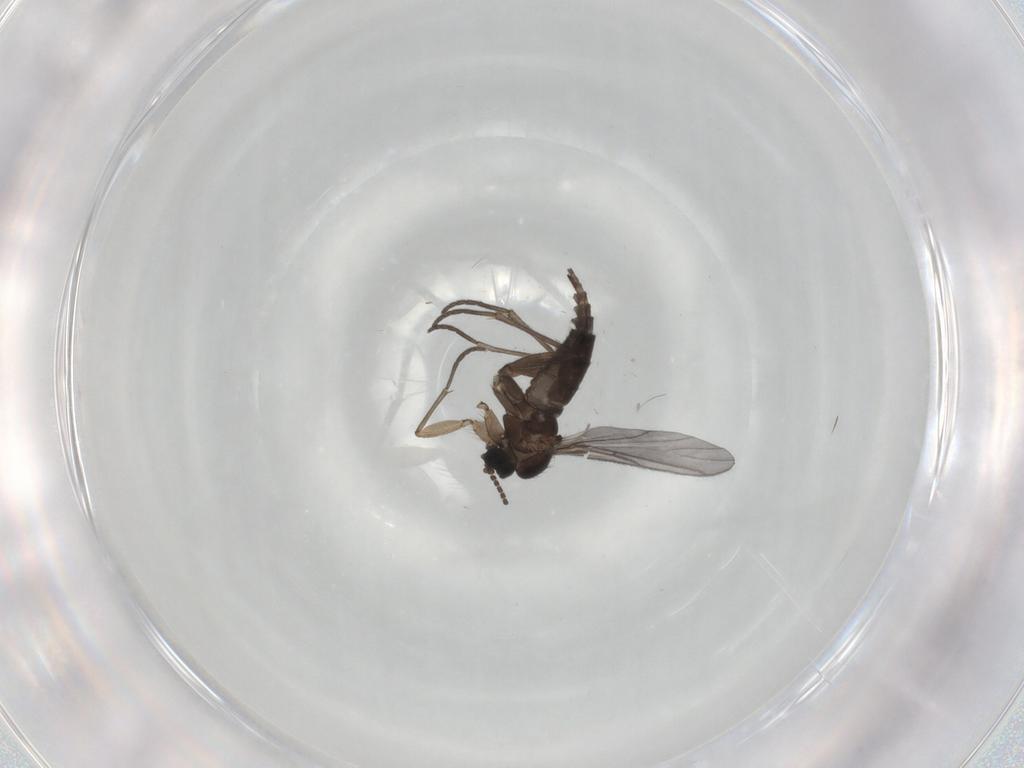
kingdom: Animalia
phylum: Arthropoda
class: Insecta
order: Diptera
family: Sciaridae
